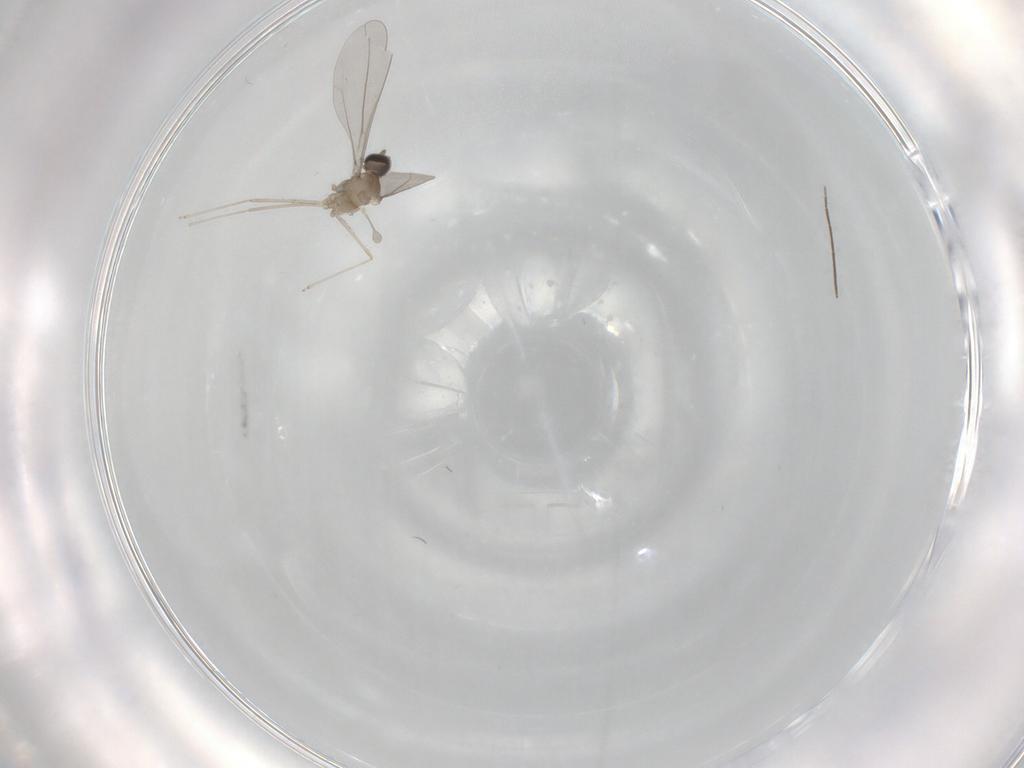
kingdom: Animalia
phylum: Arthropoda
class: Insecta
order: Diptera
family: Cecidomyiidae
